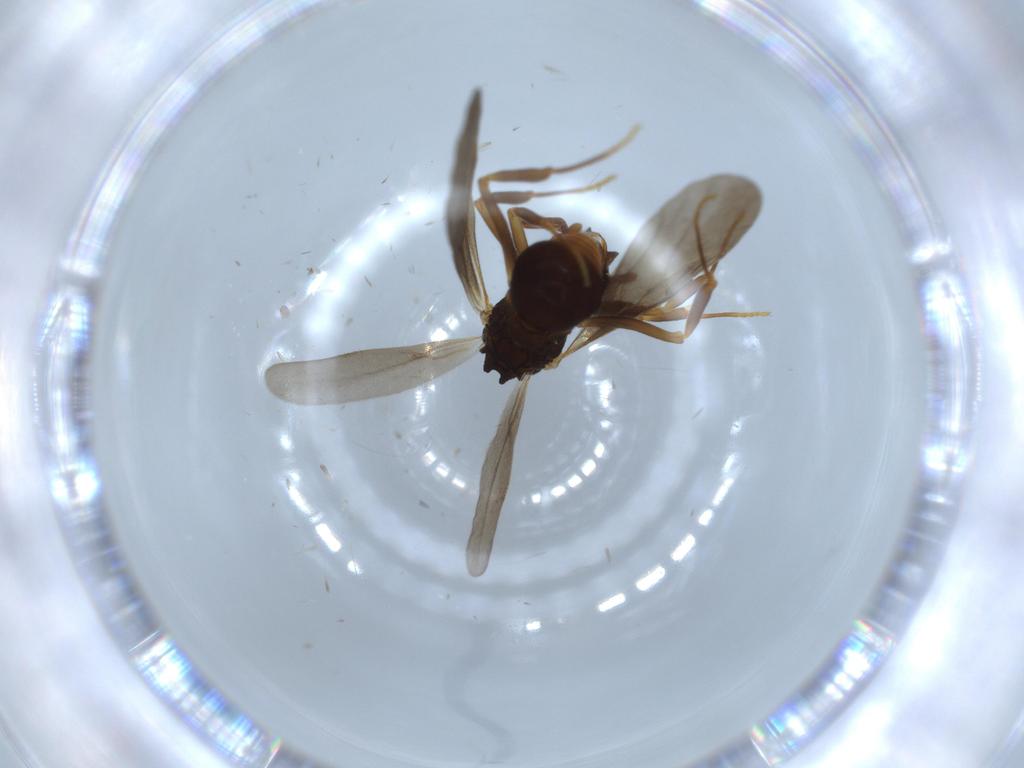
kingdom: Animalia
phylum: Arthropoda
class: Insecta
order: Hymenoptera
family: Formicidae
